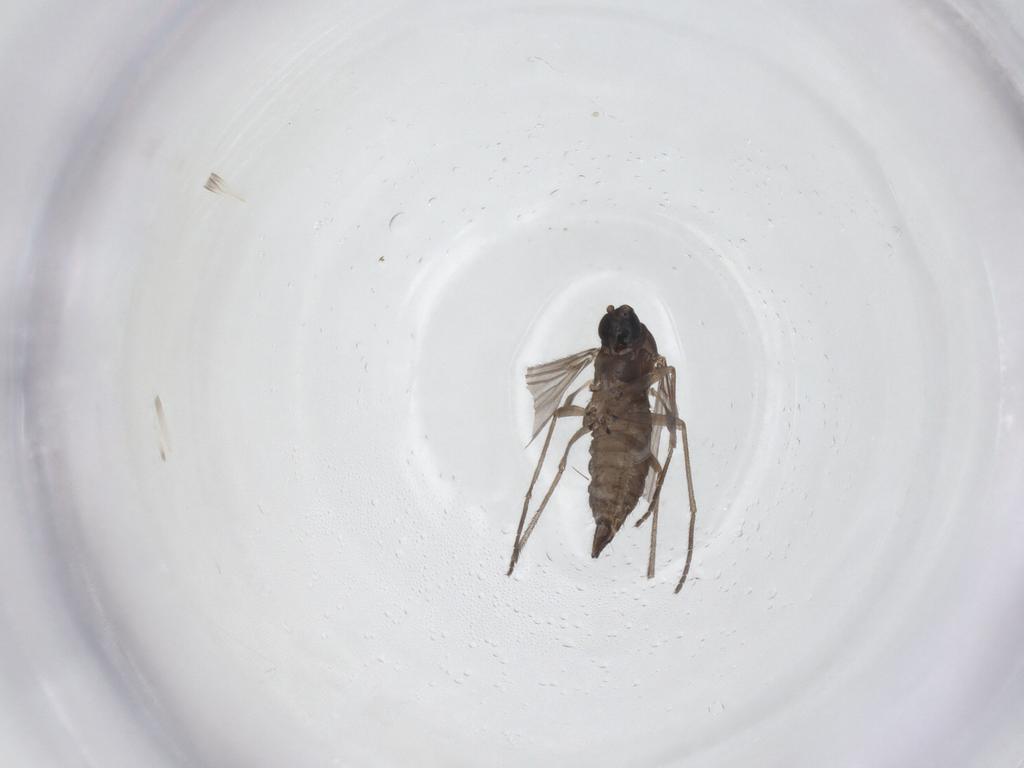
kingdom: Animalia
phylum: Arthropoda
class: Insecta
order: Diptera
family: Sciaridae
